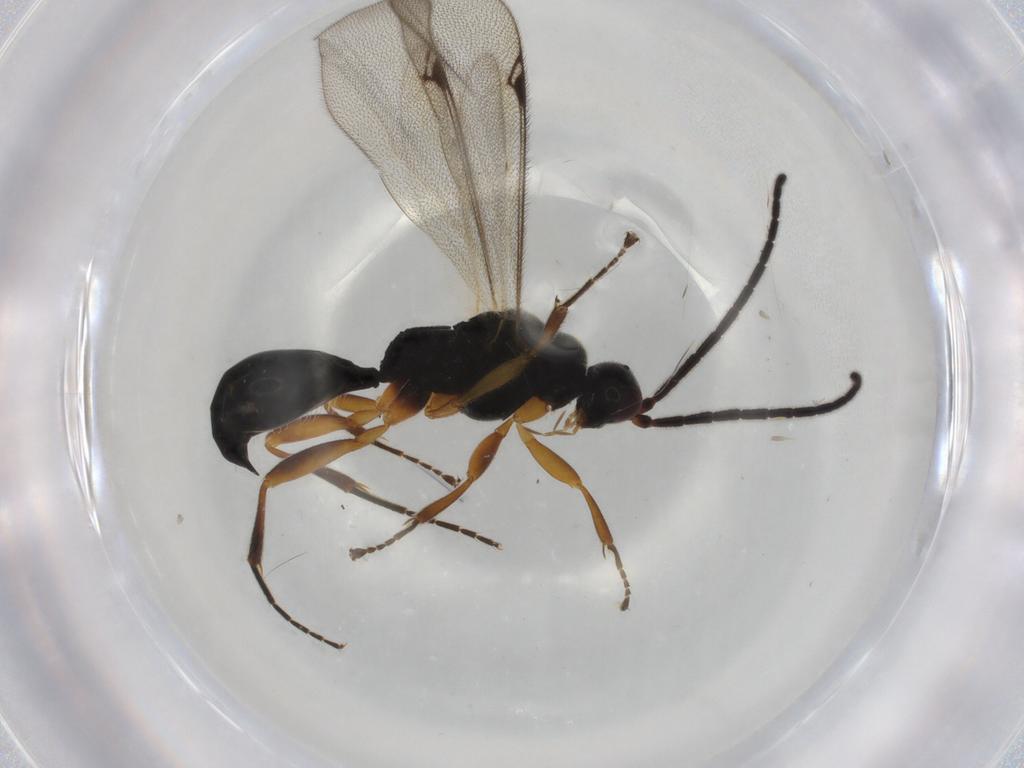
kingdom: Animalia
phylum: Arthropoda
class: Insecta
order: Hymenoptera
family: Proctotrupidae
